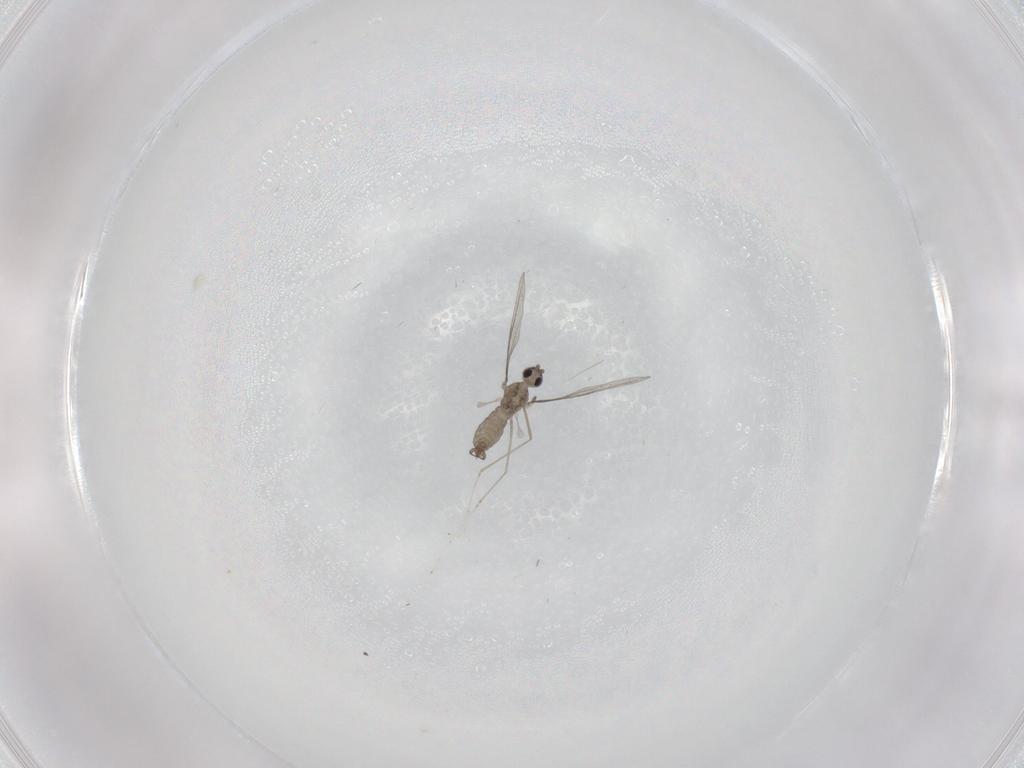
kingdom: Animalia
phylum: Arthropoda
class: Insecta
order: Diptera
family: Cecidomyiidae
